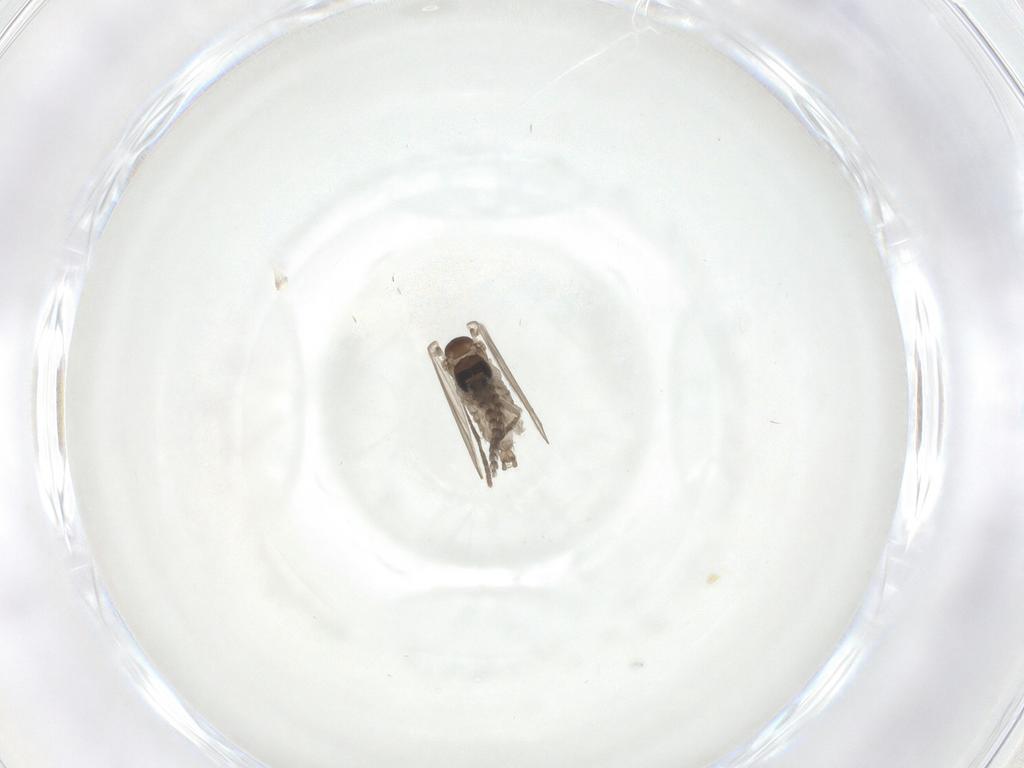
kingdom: Animalia
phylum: Arthropoda
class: Insecta
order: Diptera
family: Psychodidae
